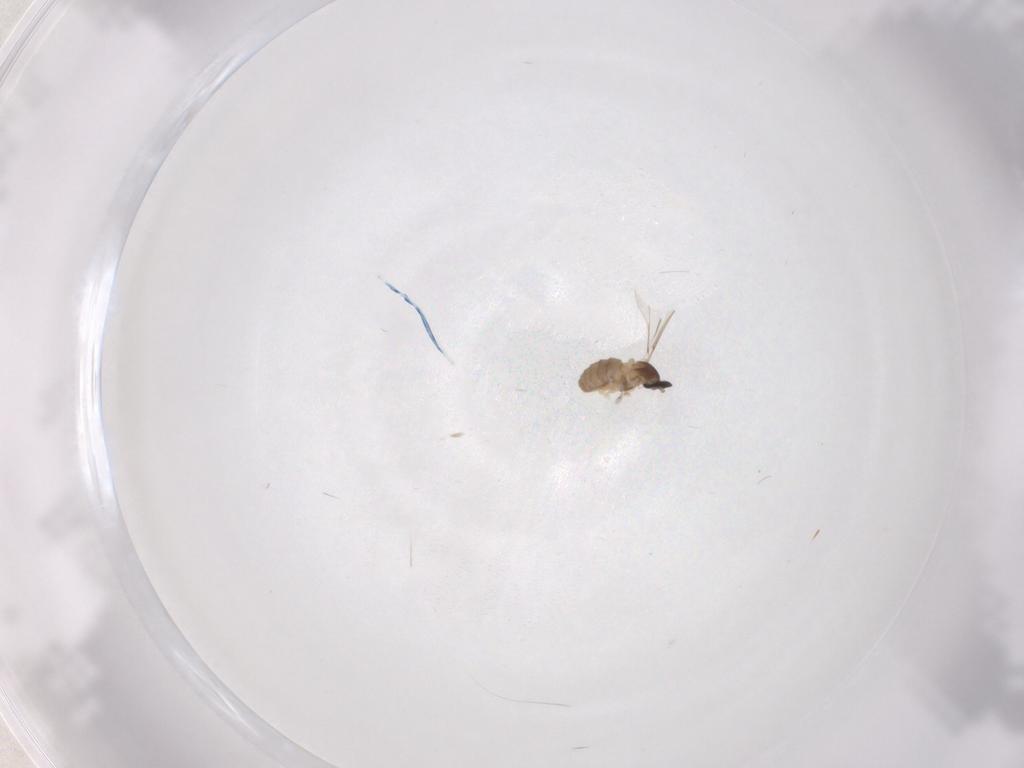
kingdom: Animalia
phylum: Arthropoda
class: Insecta
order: Diptera
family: Cecidomyiidae
